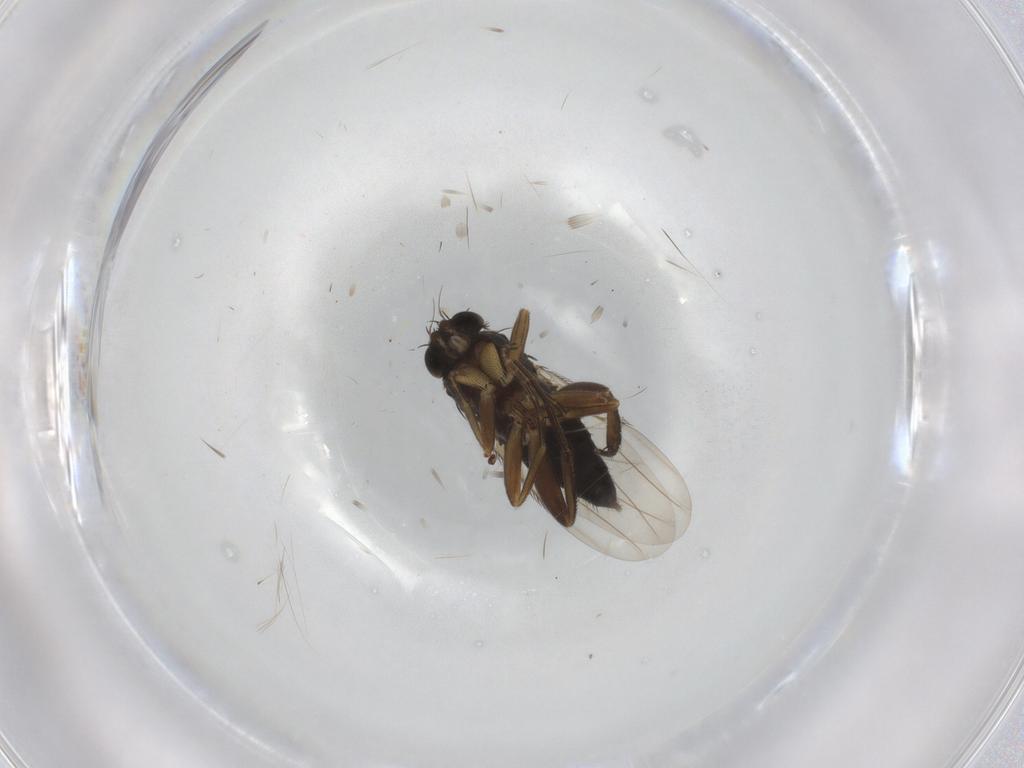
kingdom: Animalia
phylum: Arthropoda
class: Insecta
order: Diptera
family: Phoridae
